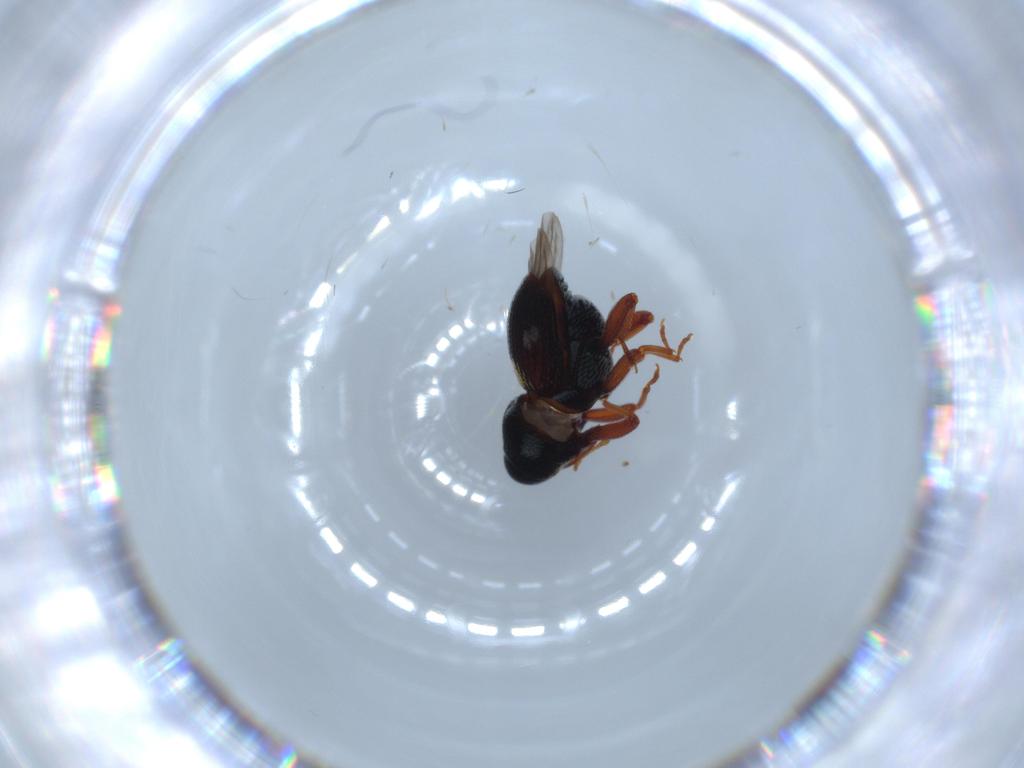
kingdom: Animalia
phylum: Arthropoda
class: Insecta
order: Coleoptera
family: Curculionidae
